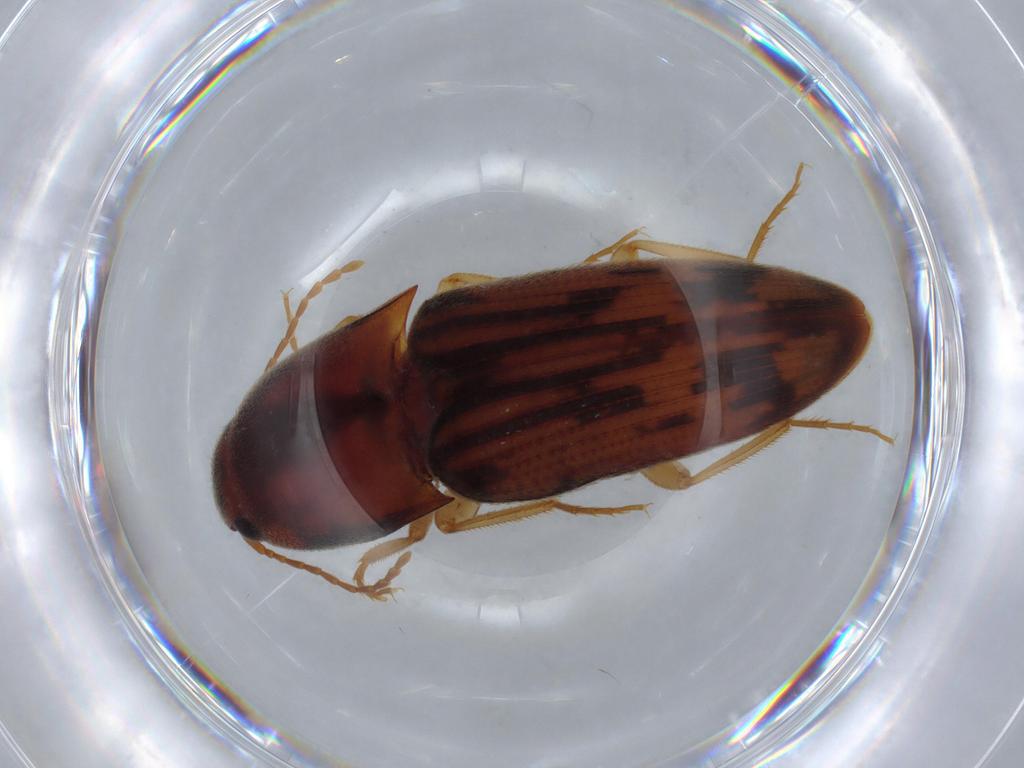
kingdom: Animalia
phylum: Arthropoda
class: Insecta
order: Coleoptera
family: Elateridae
